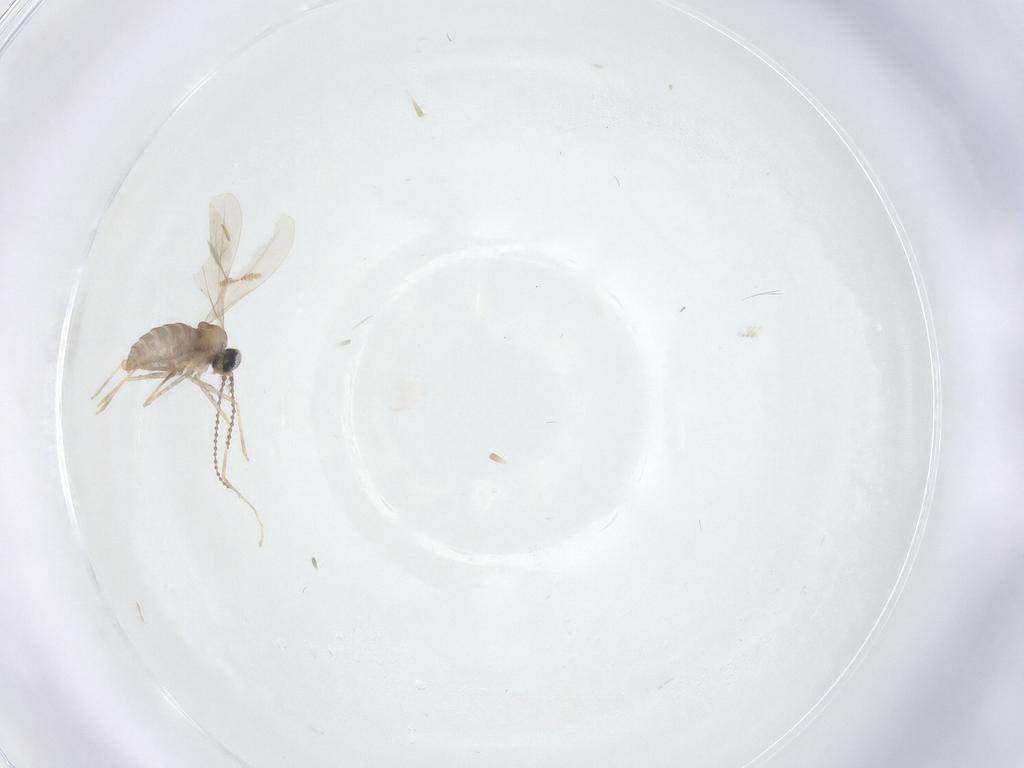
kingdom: Animalia
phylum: Arthropoda
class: Insecta
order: Diptera
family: Cecidomyiidae
